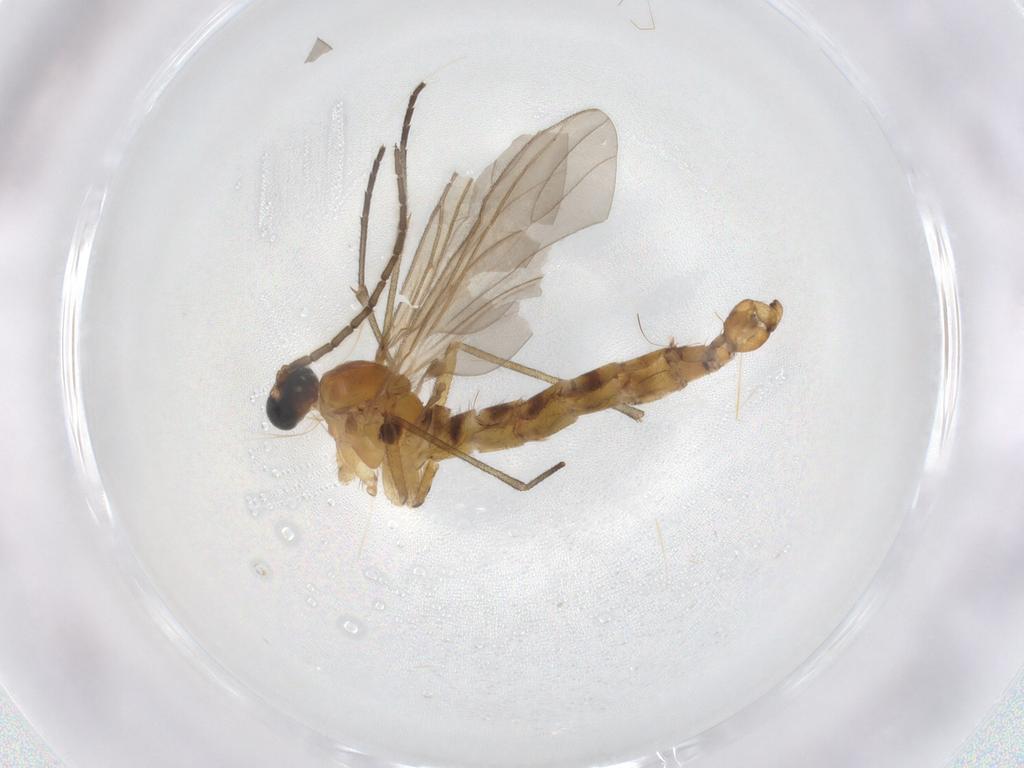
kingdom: Animalia
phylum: Arthropoda
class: Insecta
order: Diptera
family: Sciaridae
